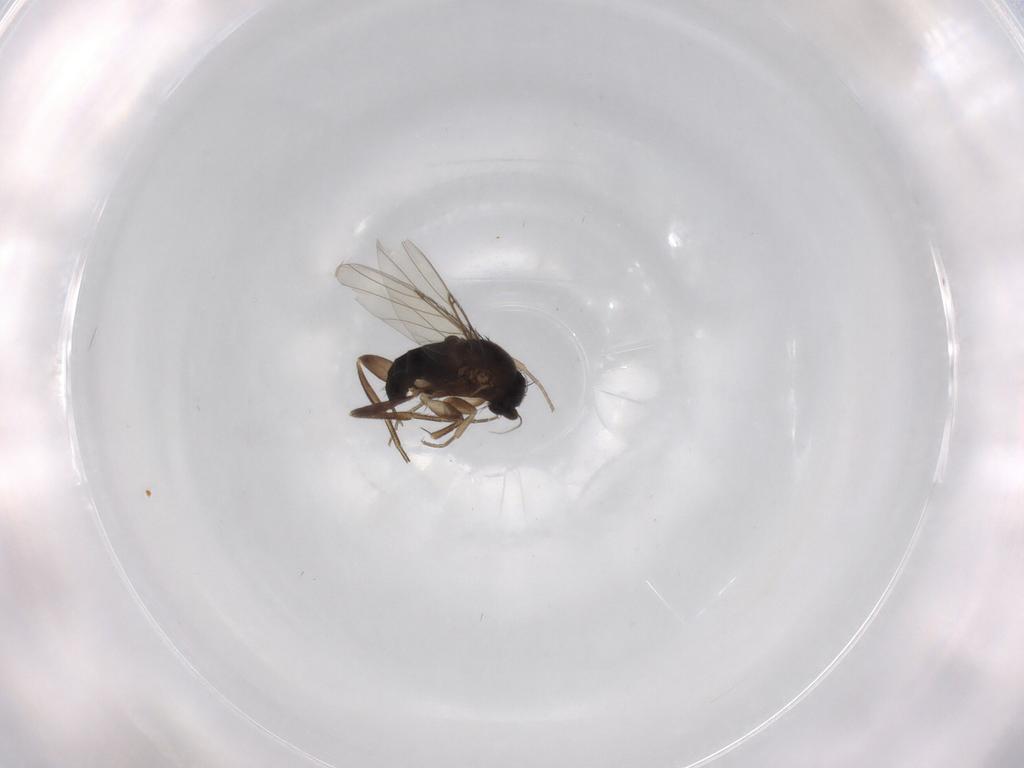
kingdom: Animalia
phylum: Arthropoda
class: Insecta
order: Diptera
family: Phoridae
